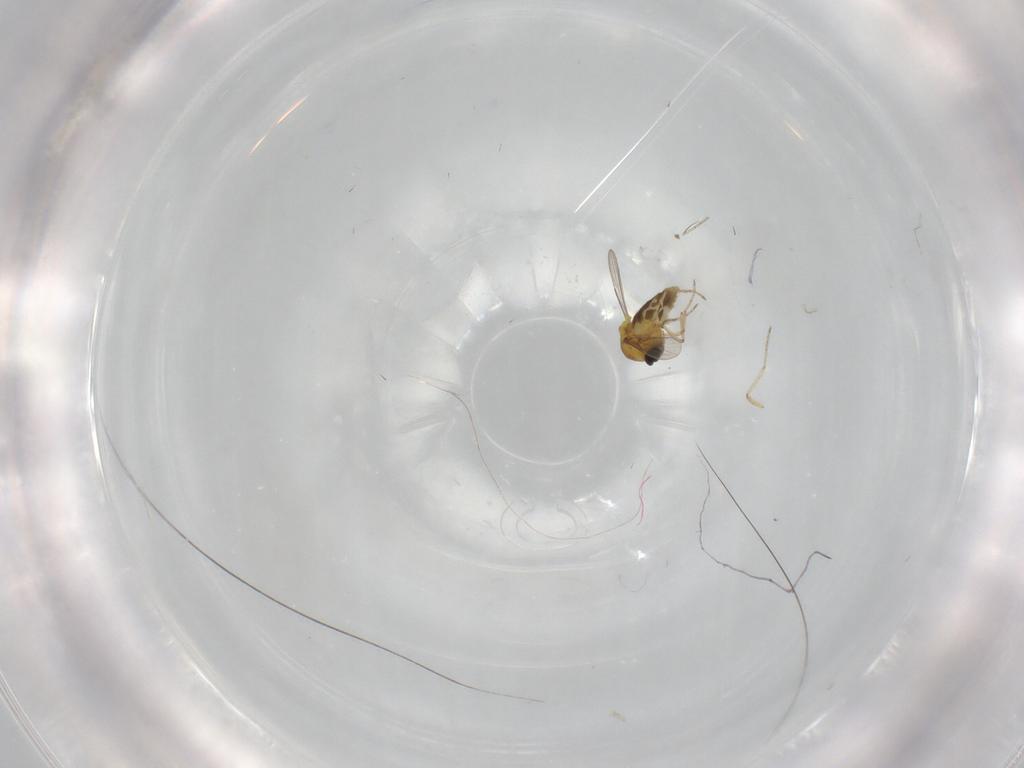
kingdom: Animalia
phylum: Arthropoda
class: Insecta
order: Diptera
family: Ceratopogonidae
